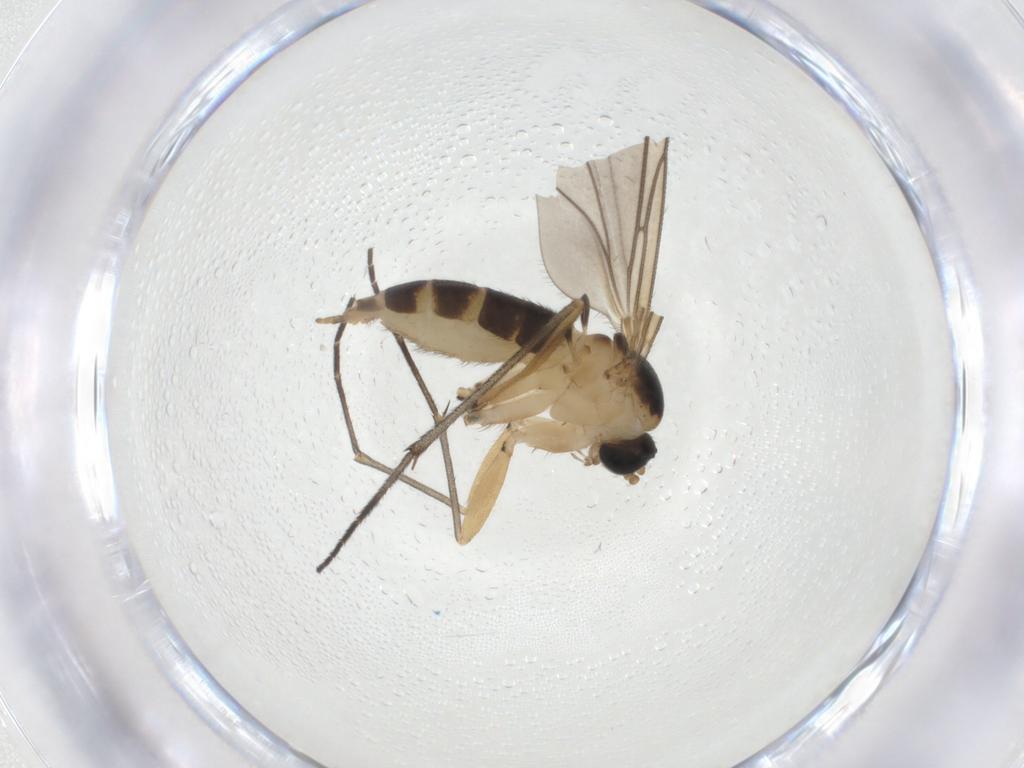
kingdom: Animalia
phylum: Arthropoda
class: Insecta
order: Diptera
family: Sciaridae
